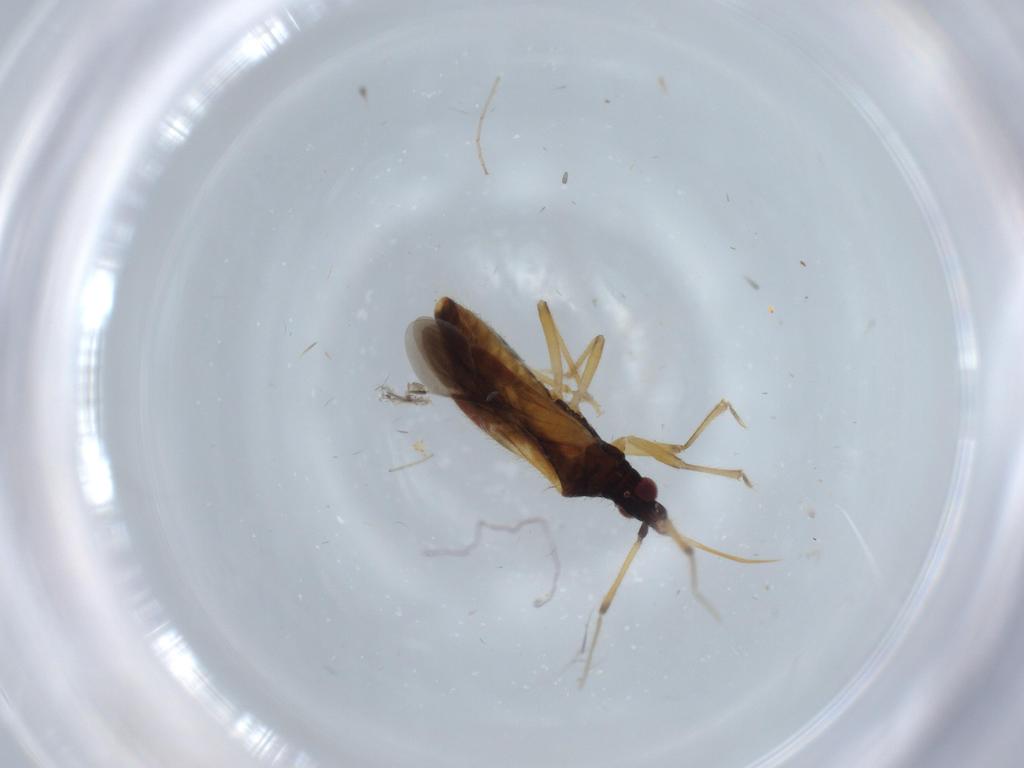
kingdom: Animalia
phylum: Arthropoda
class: Insecta
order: Hemiptera
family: Lasiochilidae
